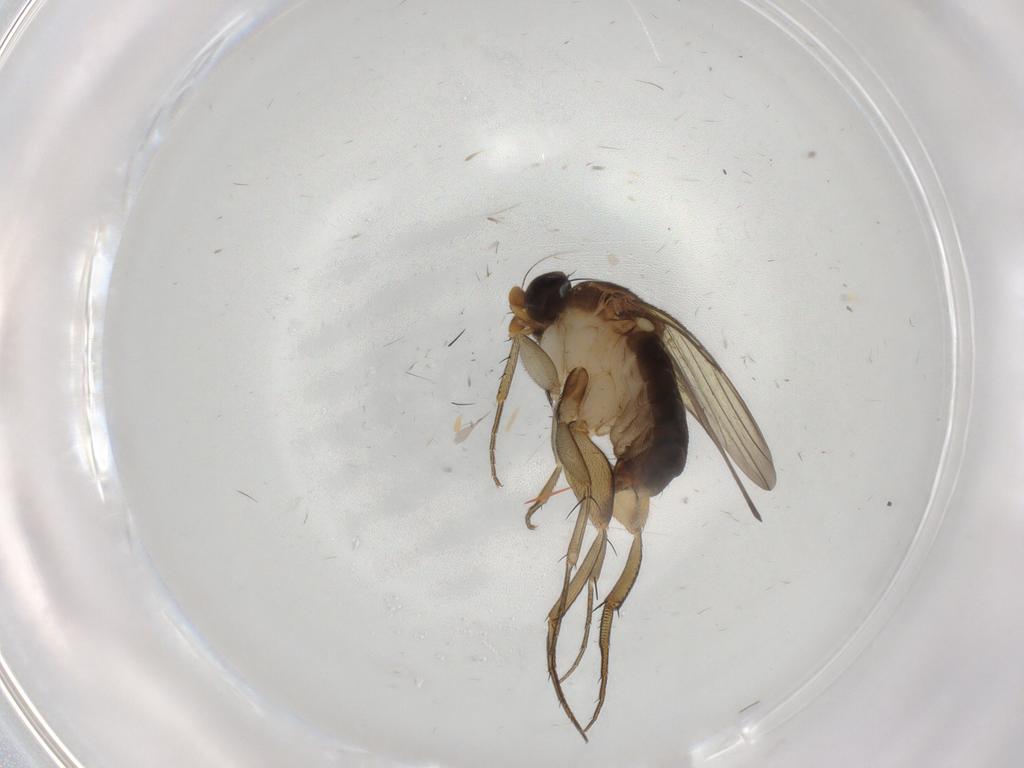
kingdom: Animalia
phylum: Arthropoda
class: Insecta
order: Diptera
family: Phoridae
